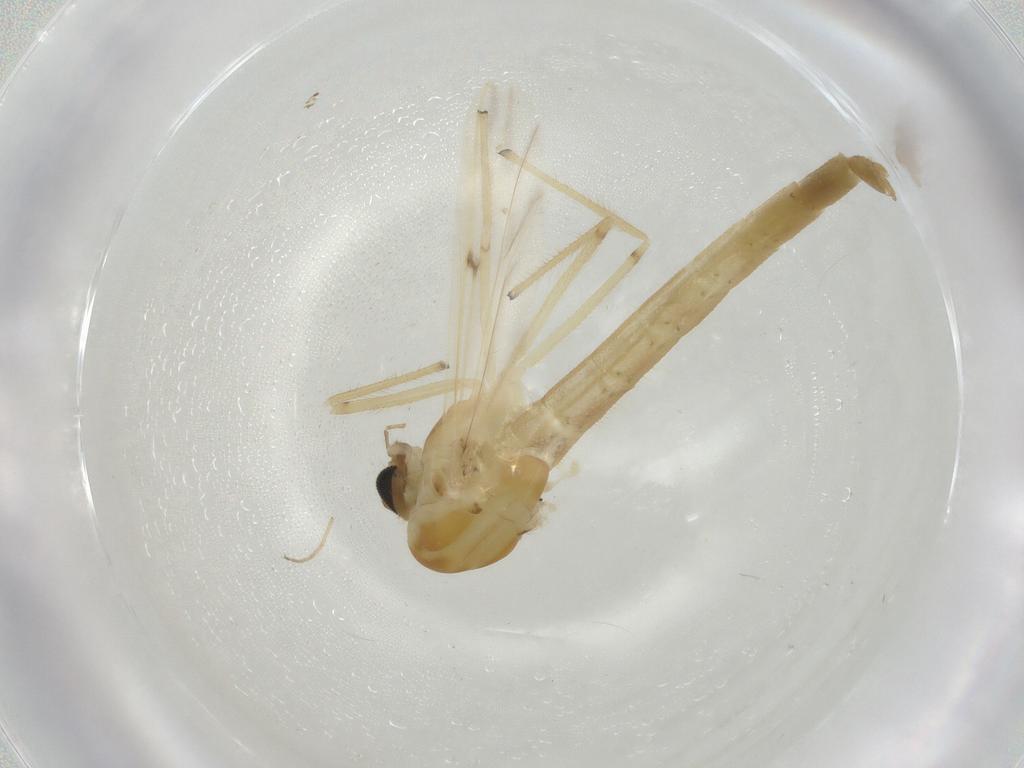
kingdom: Animalia
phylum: Arthropoda
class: Insecta
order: Diptera
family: Chironomidae
